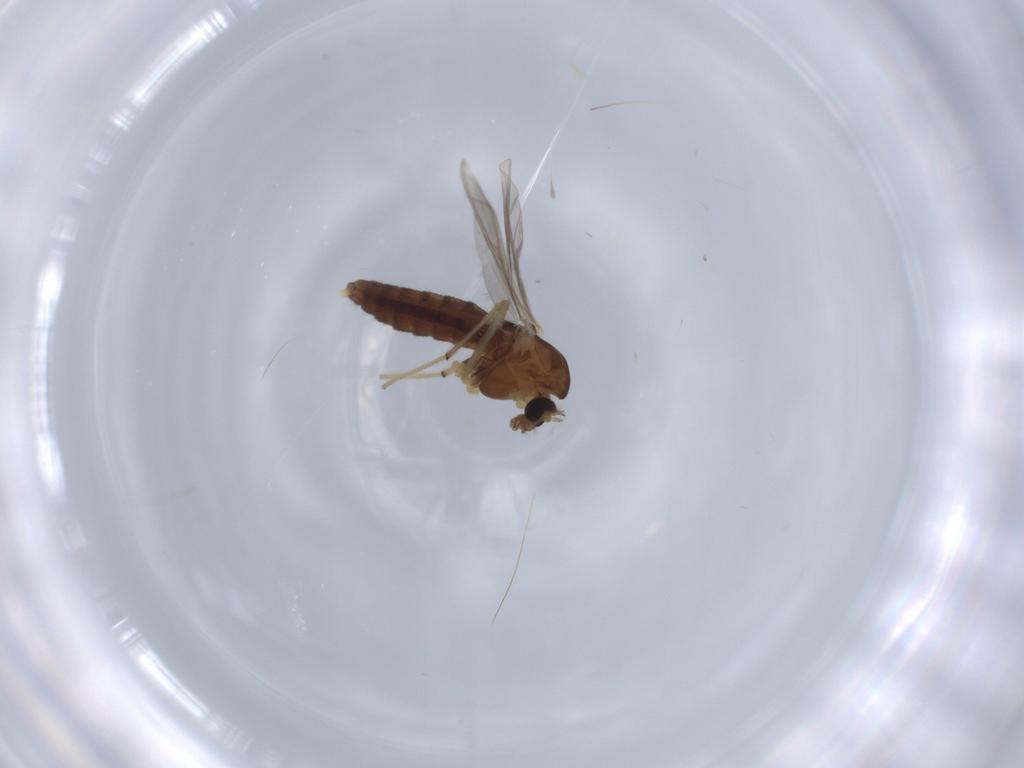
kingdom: Animalia
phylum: Arthropoda
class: Insecta
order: Diptera
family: Chironomidae
